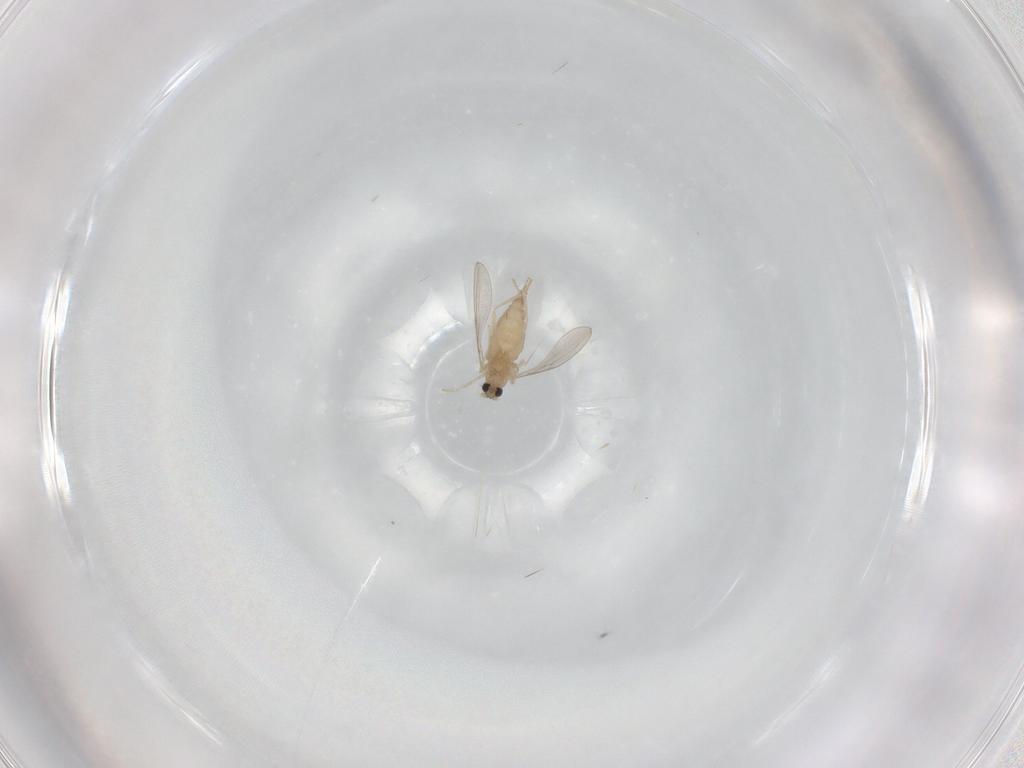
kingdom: Animalia
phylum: Arthropoda
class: Insecta
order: Diptera
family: Cecidomyiidae
